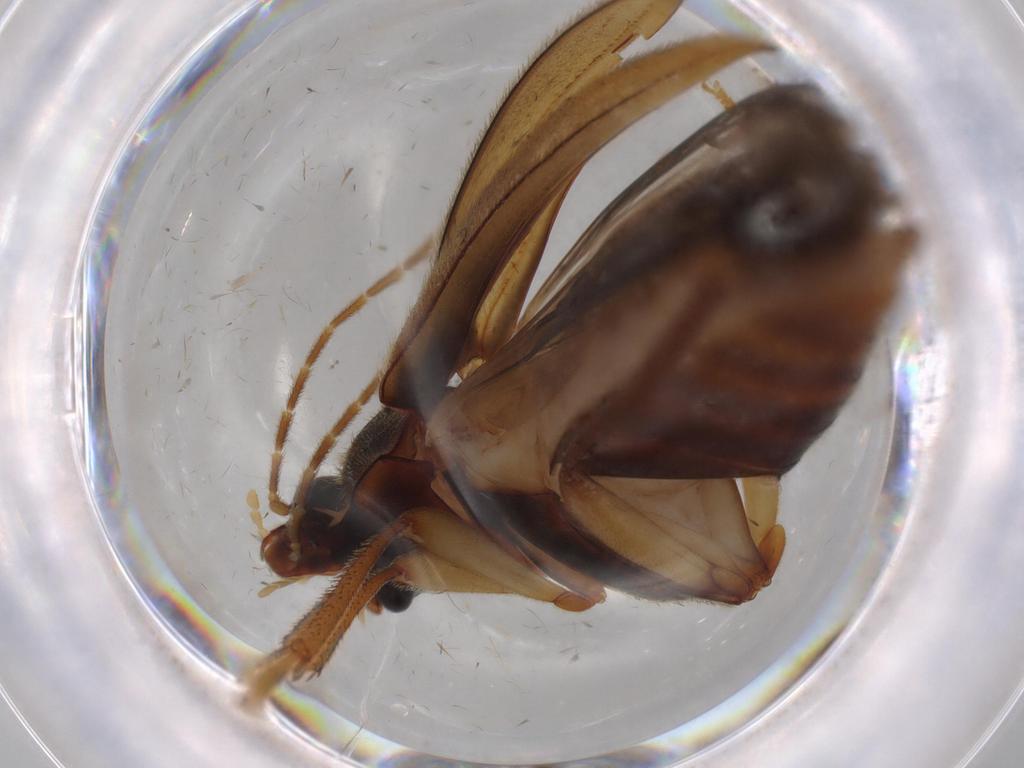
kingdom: Animalia
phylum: Arthropoda
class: Insecta
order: Coleoptera
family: Ptilodactylidae
